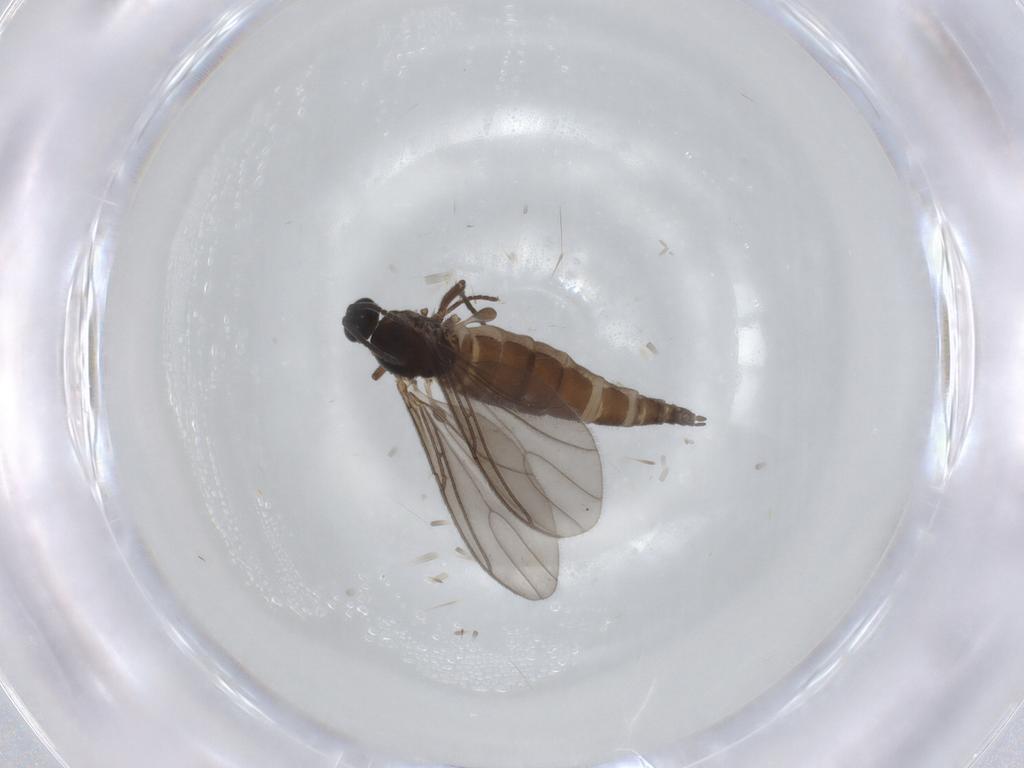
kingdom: Animalia
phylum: Arthropoda
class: Insecta
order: Diptera
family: Sciaridae
